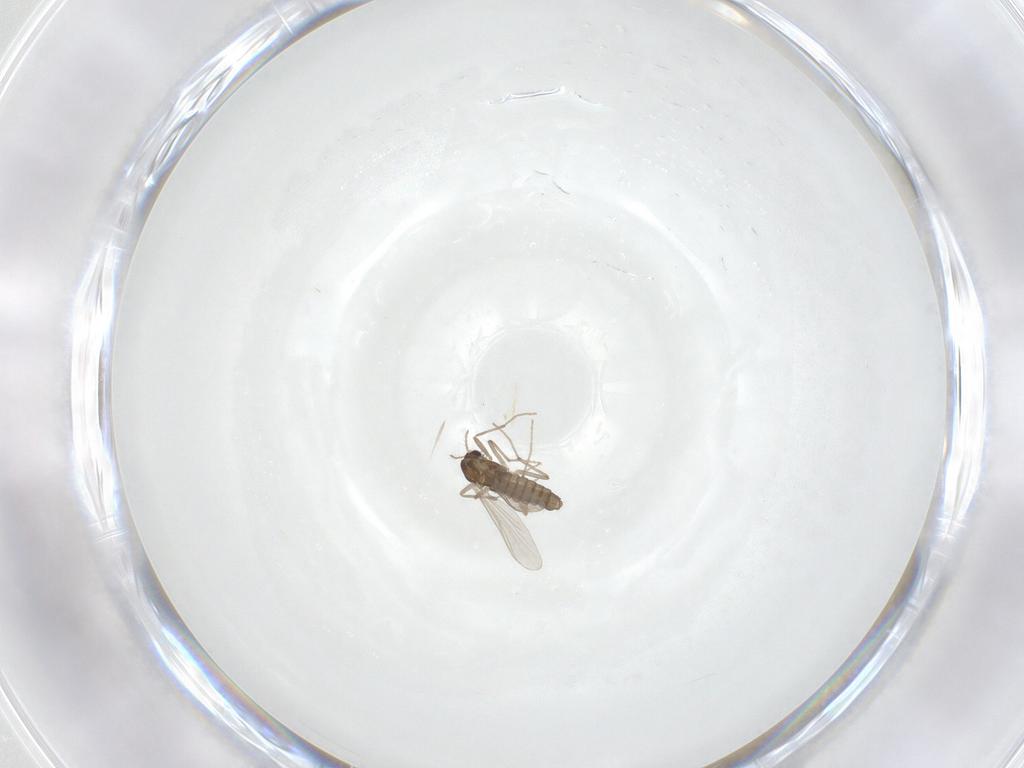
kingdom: Animalia
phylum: Arthropoda
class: Insecta
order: Diptera
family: Chironomidae
